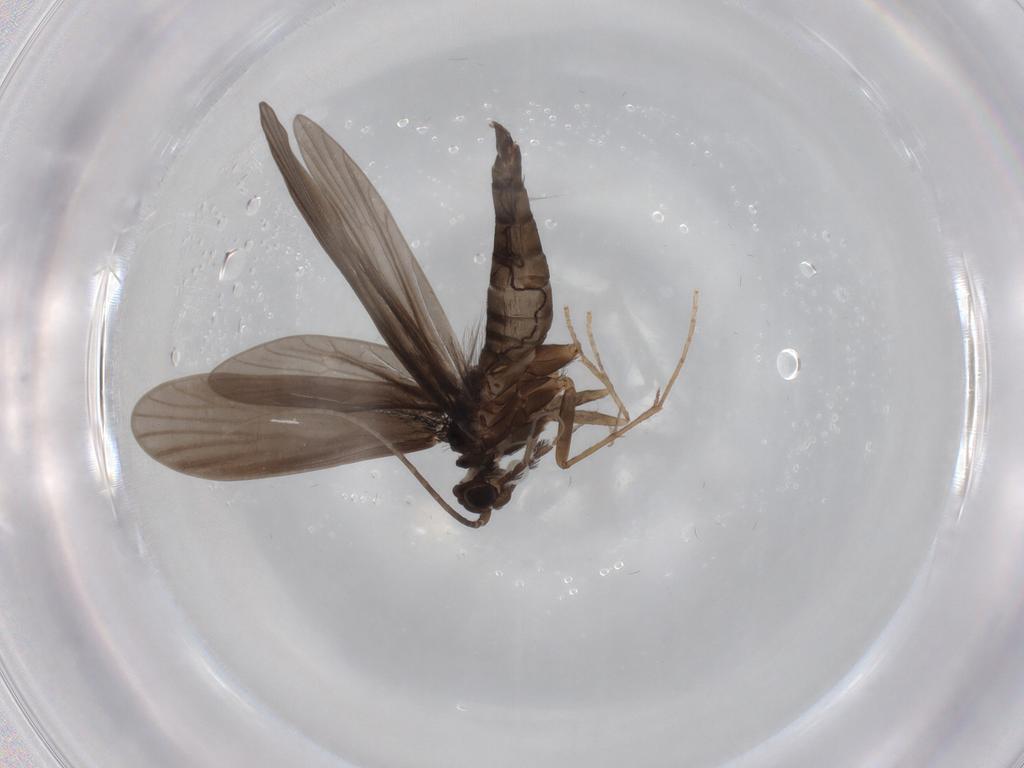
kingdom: Animalia
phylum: Arthropoda
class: Insecta
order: Trichoptera
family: Xiphocentronidae
